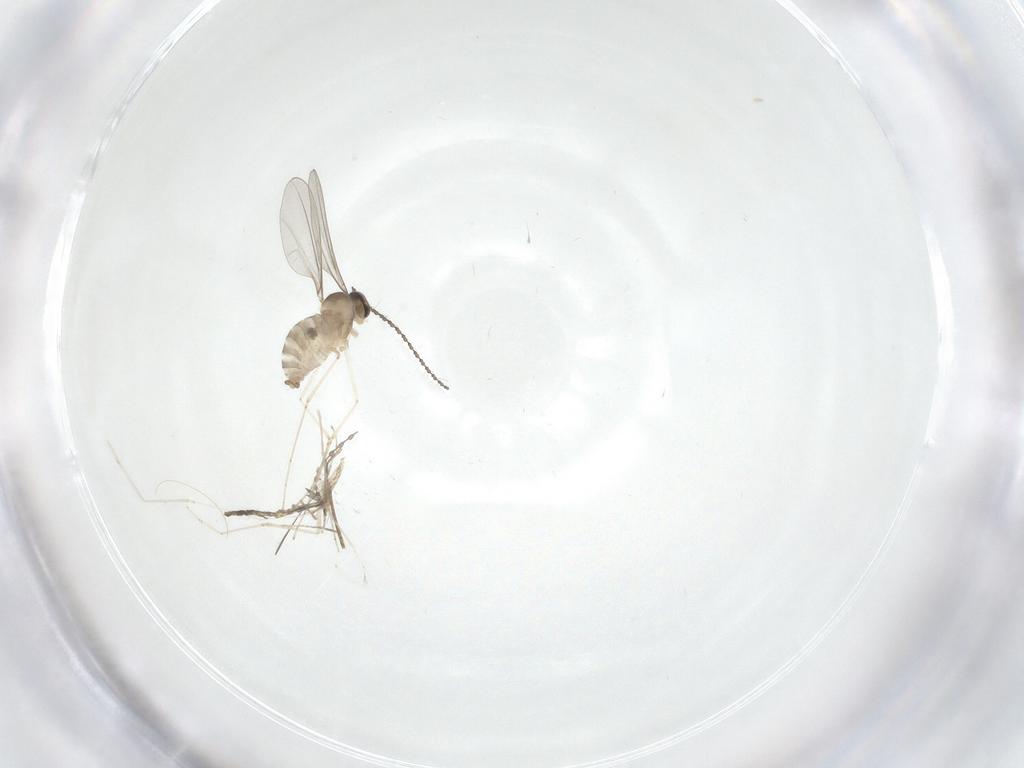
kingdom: Animalia
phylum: Arthropoda
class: Insecta
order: Diptera
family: Cecidomyiidae
